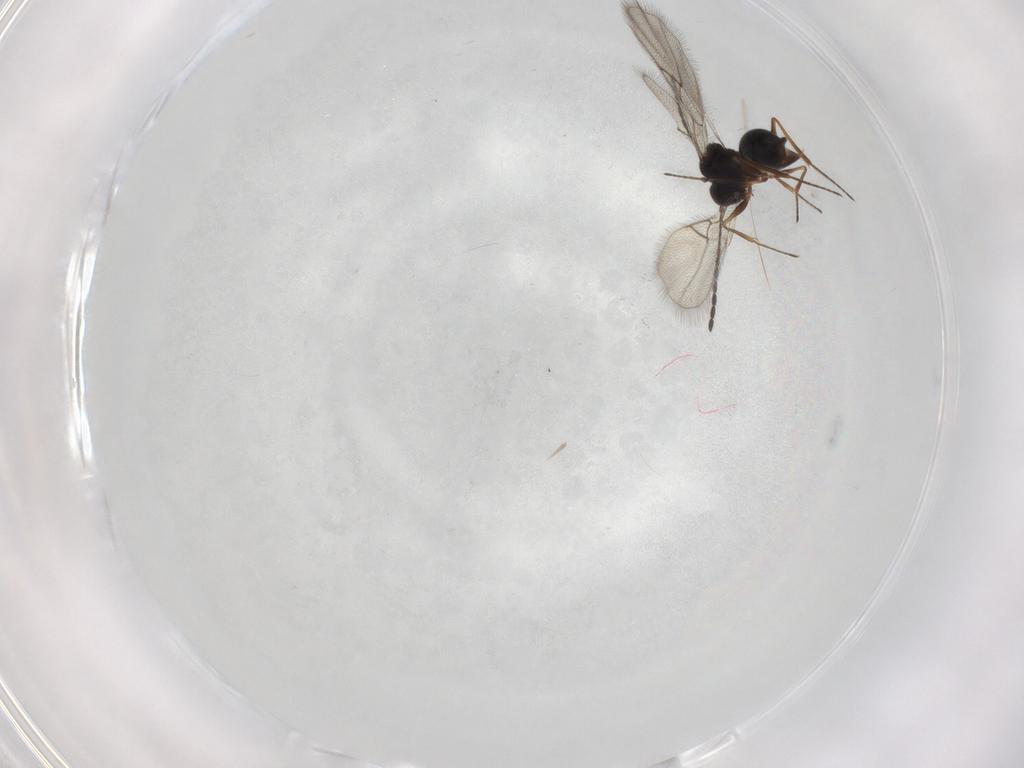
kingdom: Animalia
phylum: Arthropoda
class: Insecta
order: Hymenoptera
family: Figitidae
